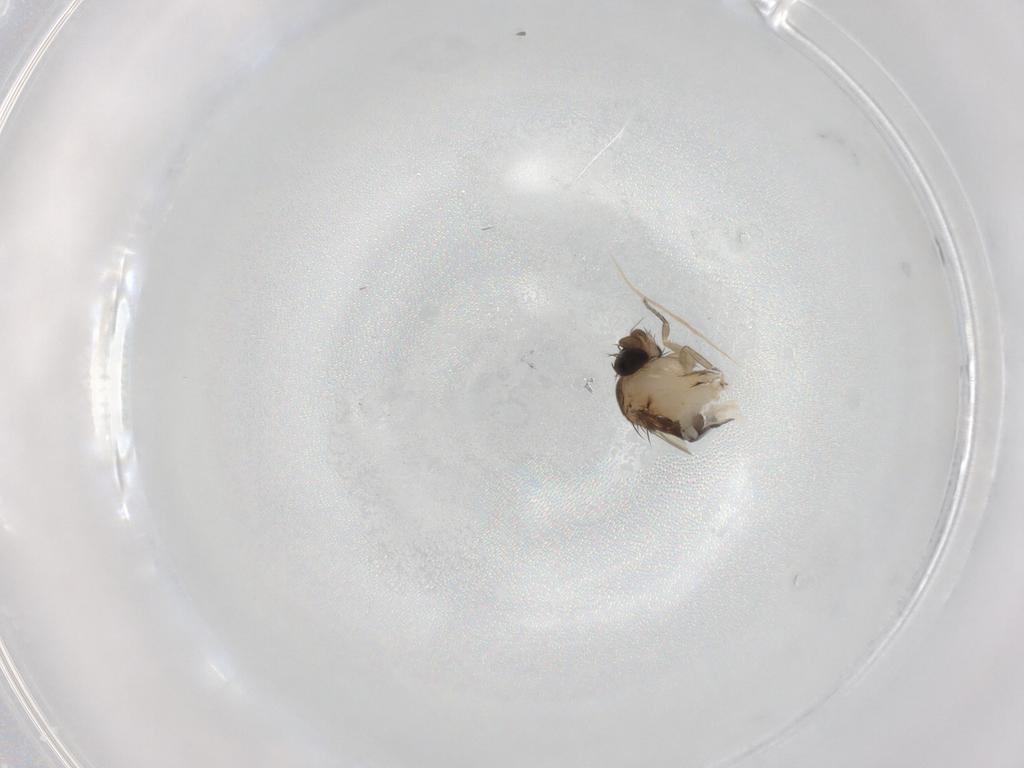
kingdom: Animalia
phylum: Arthropoda
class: Insecta
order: Diptera
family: Phoridae
